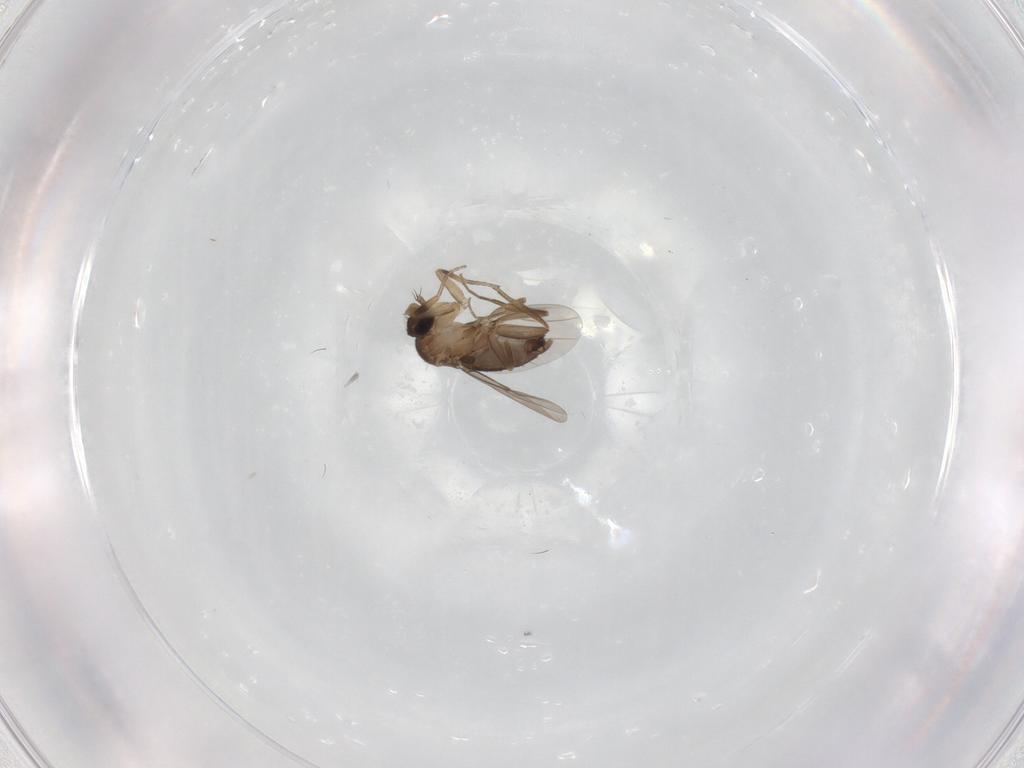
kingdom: Animalia
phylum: Arthropoda
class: Insecta
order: Diptera
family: Phoridae
